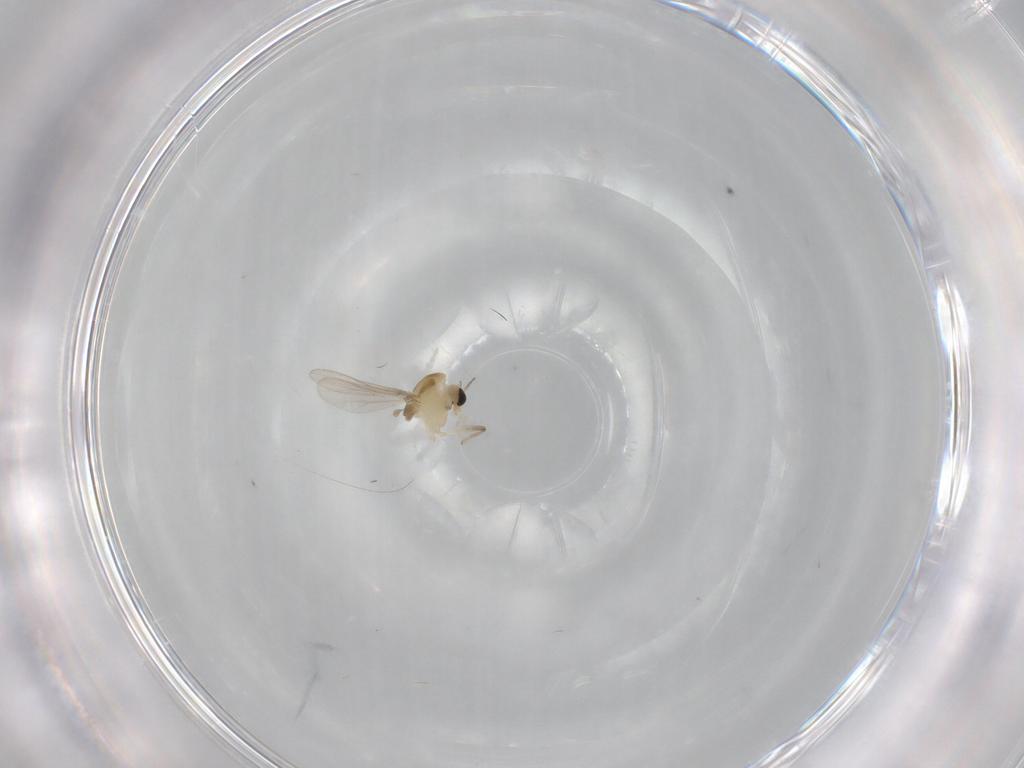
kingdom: Animalia
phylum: Arthropoda
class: Insecta
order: Diptera
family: Chironomidae
